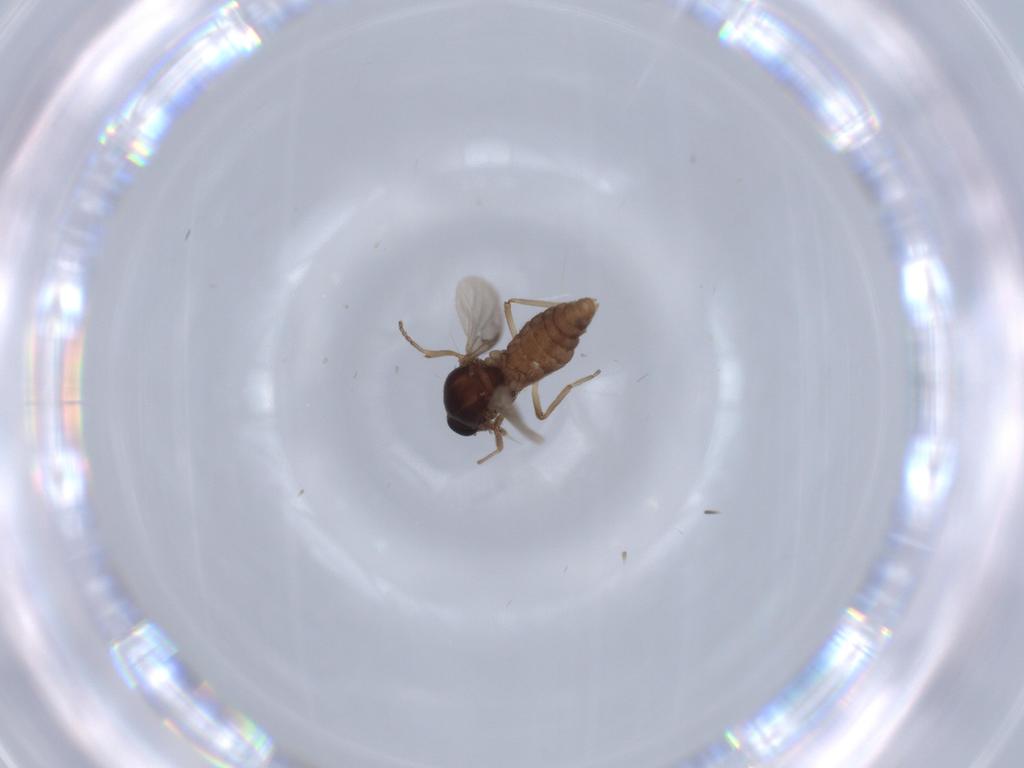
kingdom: Animalia
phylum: Arthropoda
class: Insecta
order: Diptera
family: Ceratopogonidae
